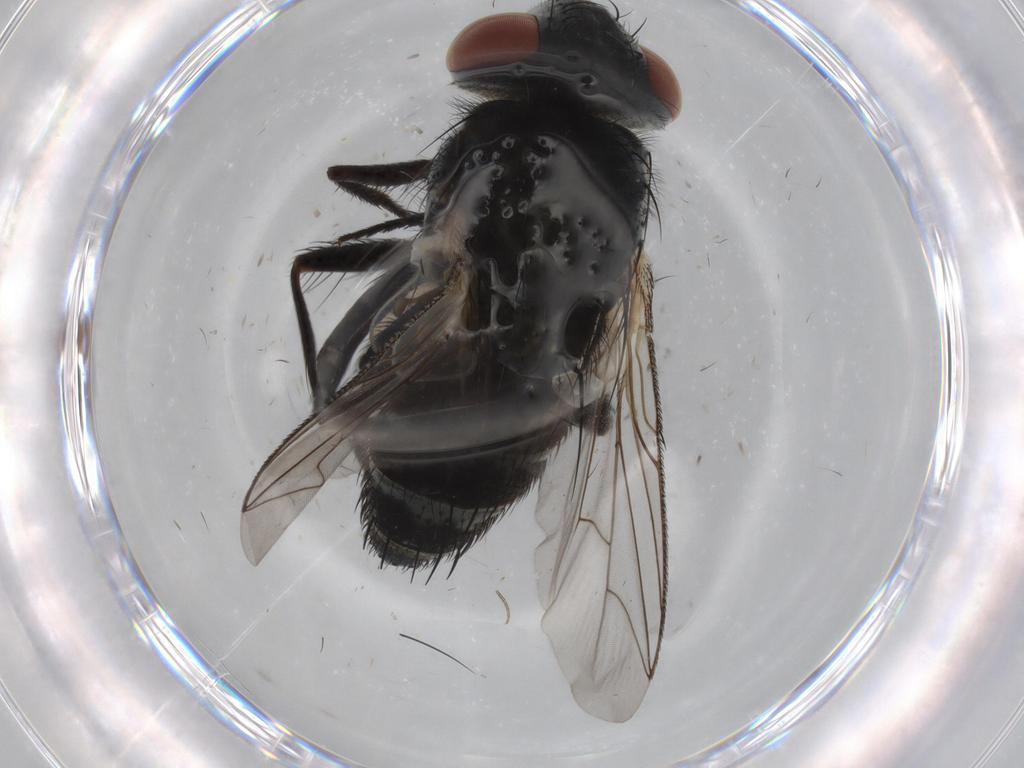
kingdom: Animalia
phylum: Arthropoda
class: Insecta
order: Diptera
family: Sarcophagidae
